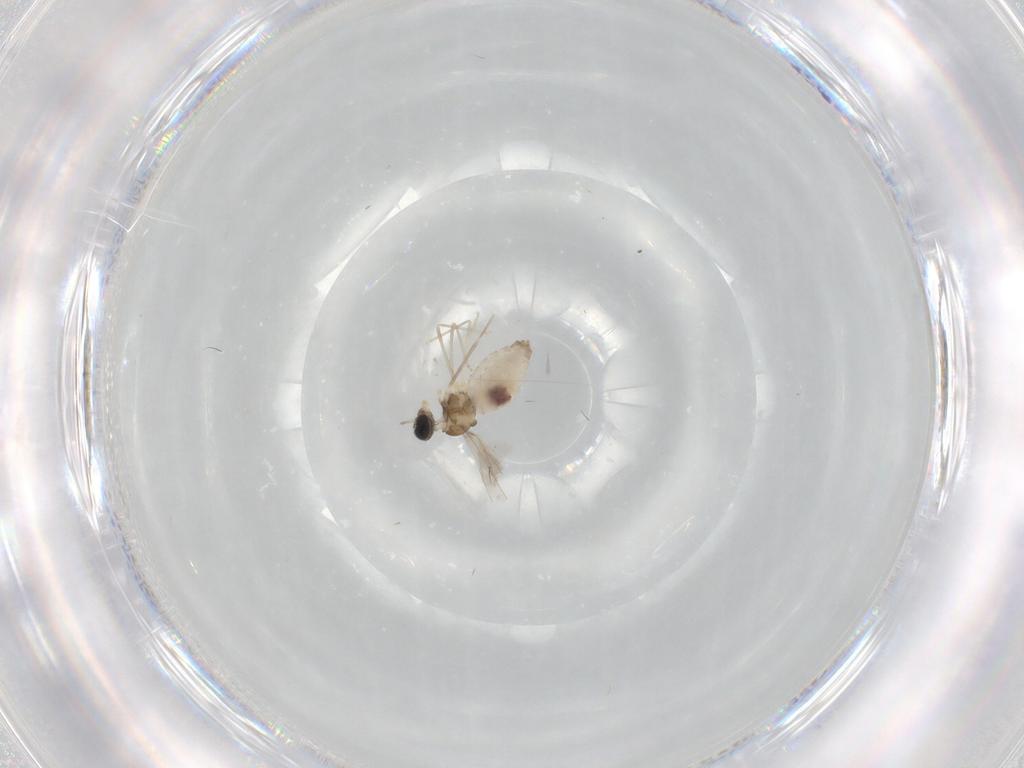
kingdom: Animalia
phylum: Arthropoda
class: Insecta
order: Diptera
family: Cecidomyiidae
